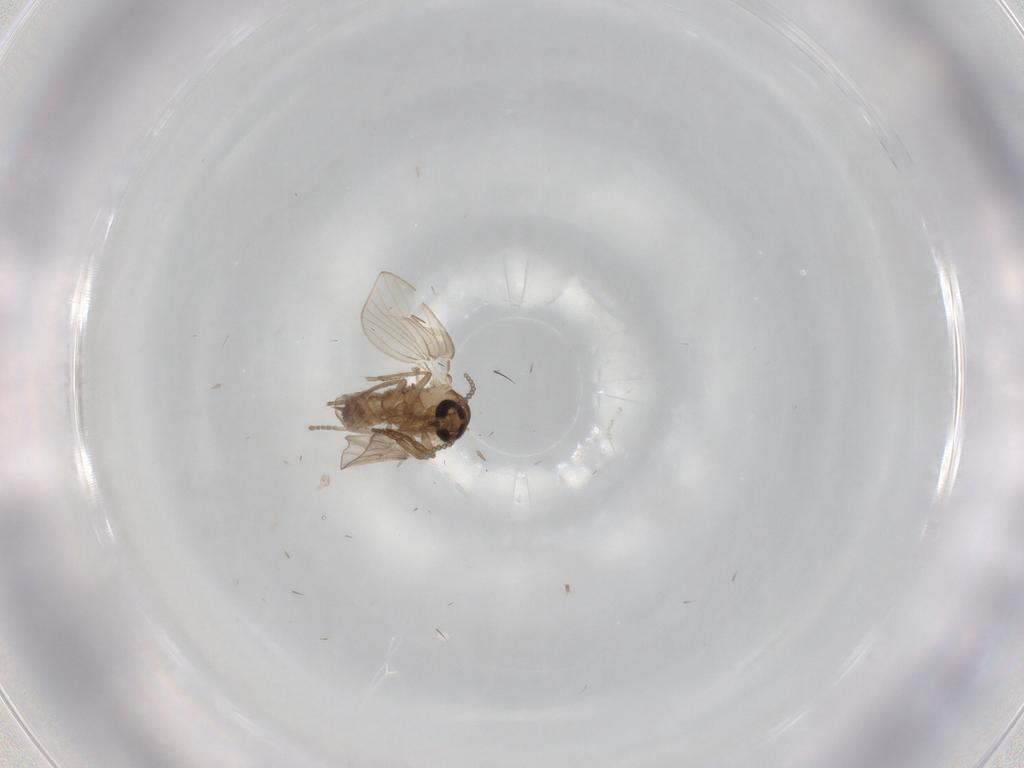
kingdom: Animalia
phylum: Arthropoda
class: Insecta
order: Diptera
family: Psychodidae
